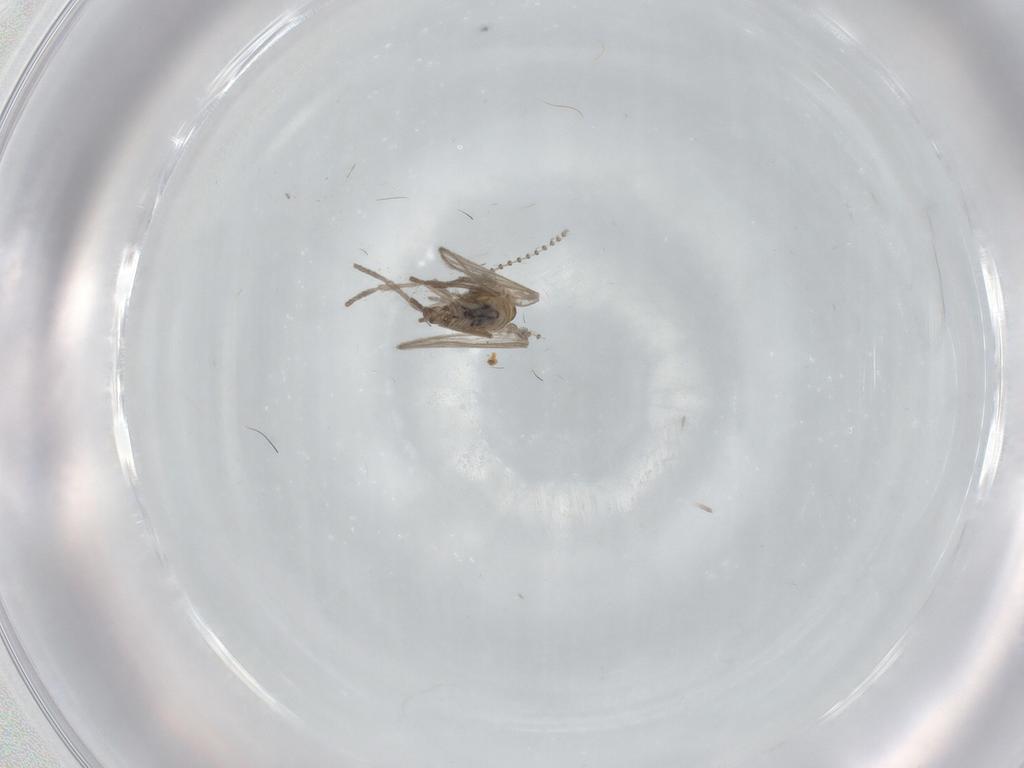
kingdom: Animalia
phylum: Arthropoda
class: Insecta
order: Diptera
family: Psychodidae
